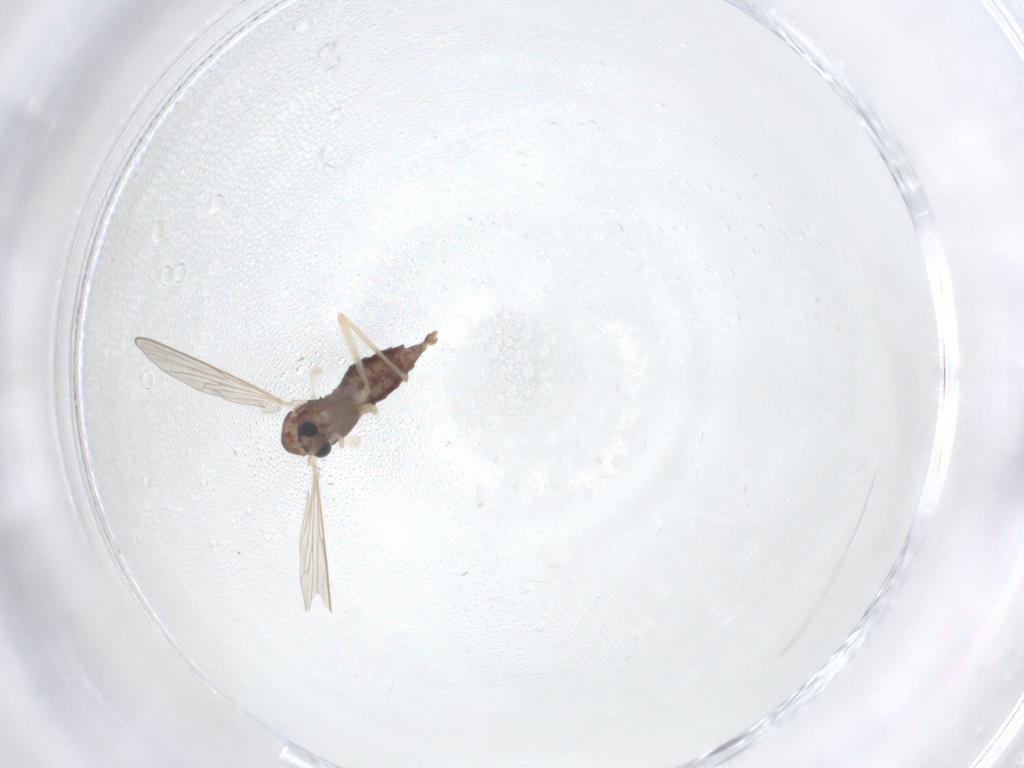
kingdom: Animalia
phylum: Arthropoda
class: Insecta
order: Diptera
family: Chironomidae
